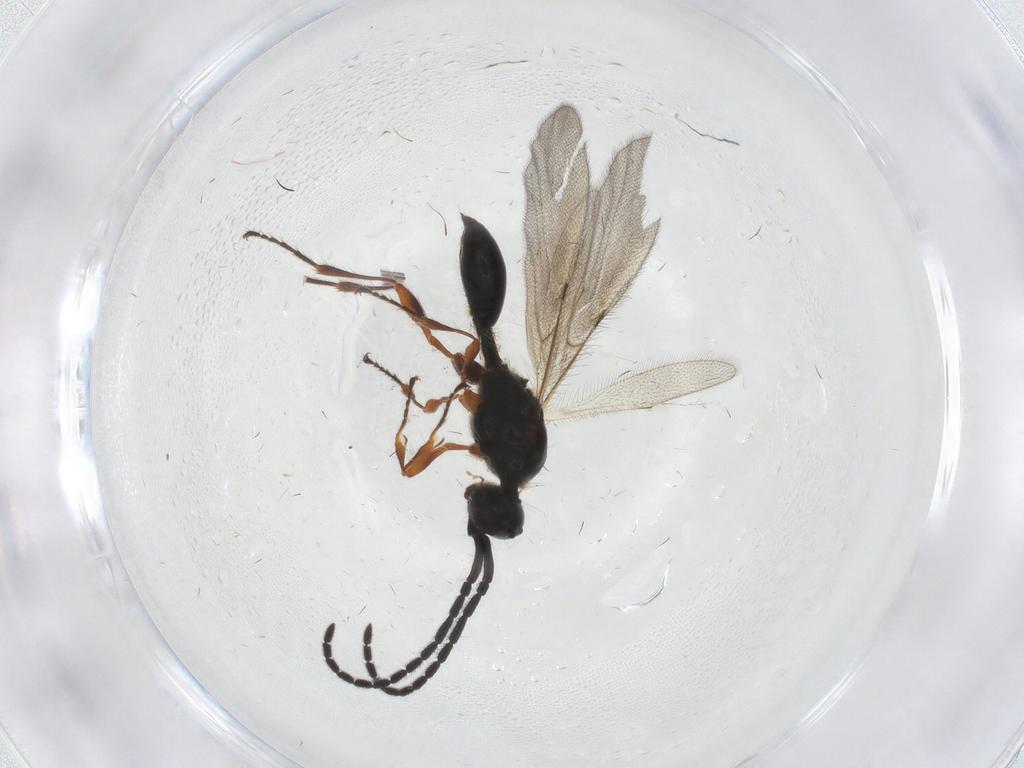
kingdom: Animalia
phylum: Arthropoda
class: Insecta
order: Hymenoptera
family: Diapriidae
